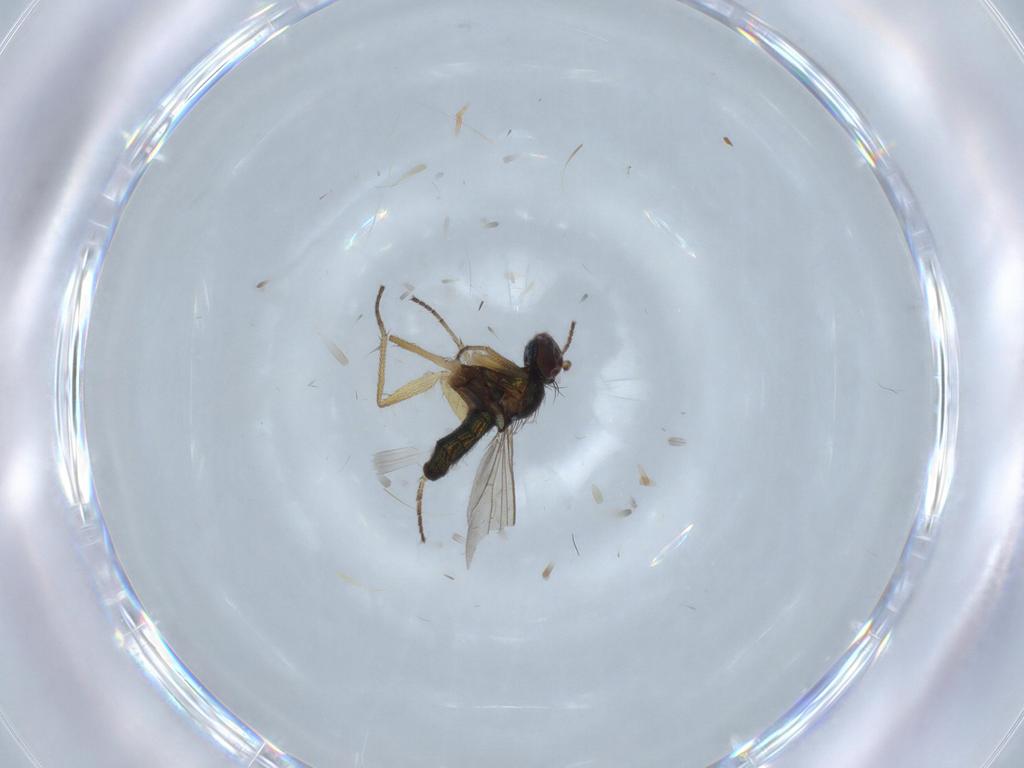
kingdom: Animalia
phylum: Arthropoda
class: Insecta
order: Diptera
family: Dolichopodidae
